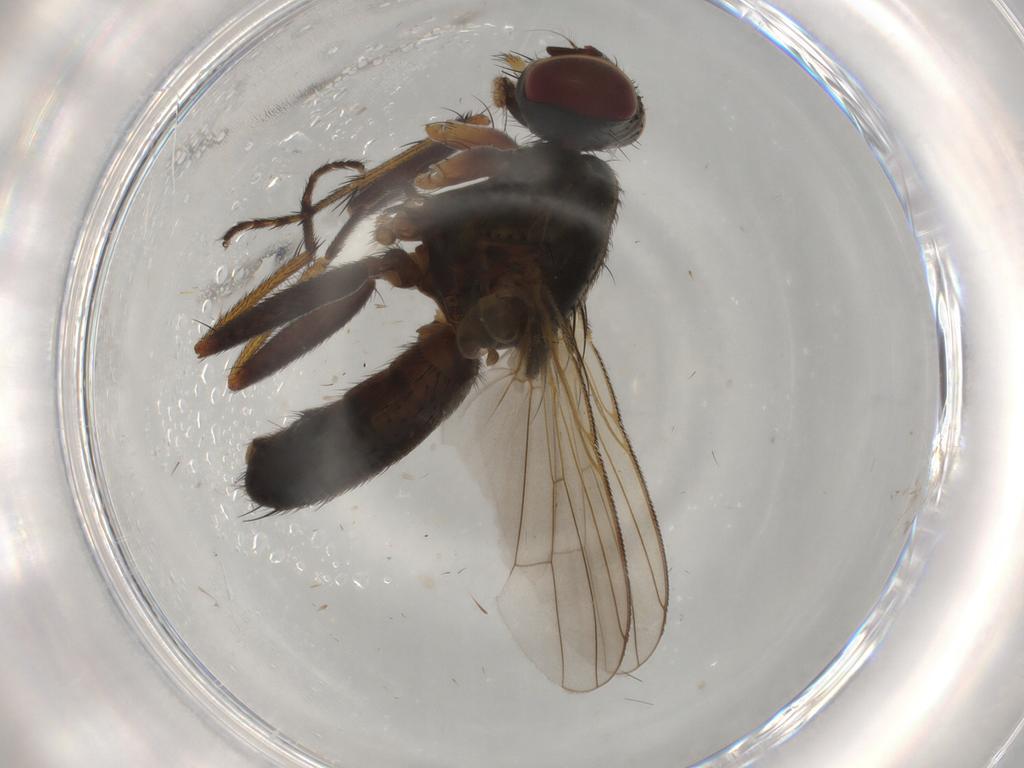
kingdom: Animalia
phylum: Arthropoda
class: Insecta
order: Diptera
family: Muscidae
